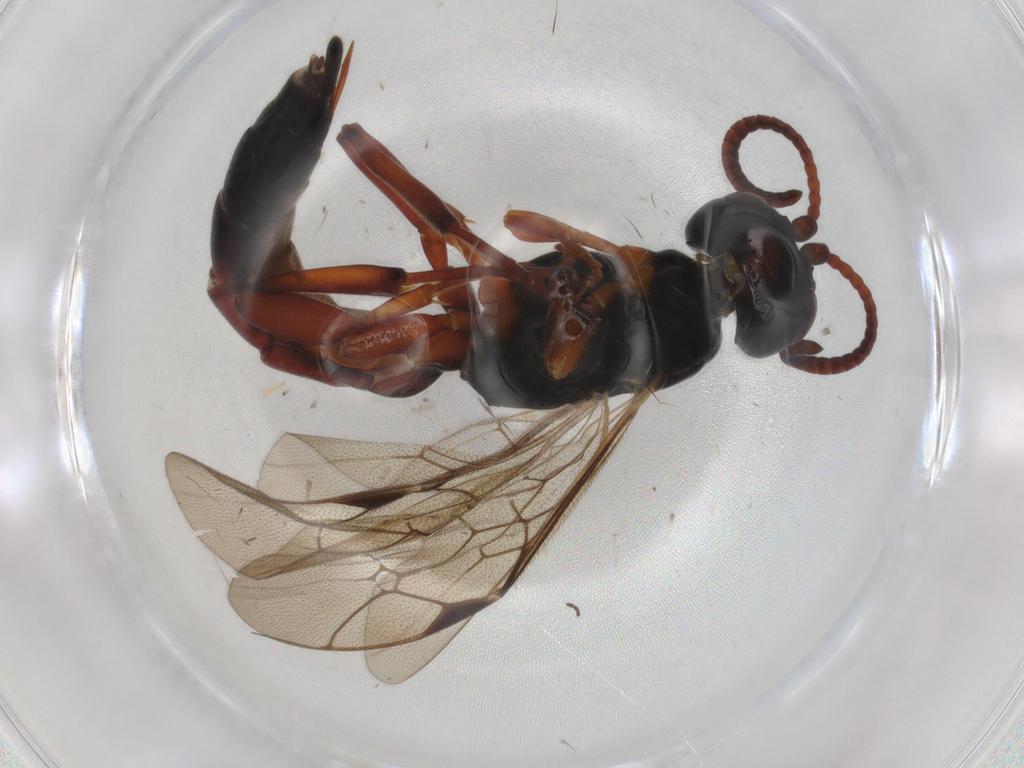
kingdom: Animalia
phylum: Arthropoda
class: Insecta
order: Hymenoptera
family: Ichneumonidae
